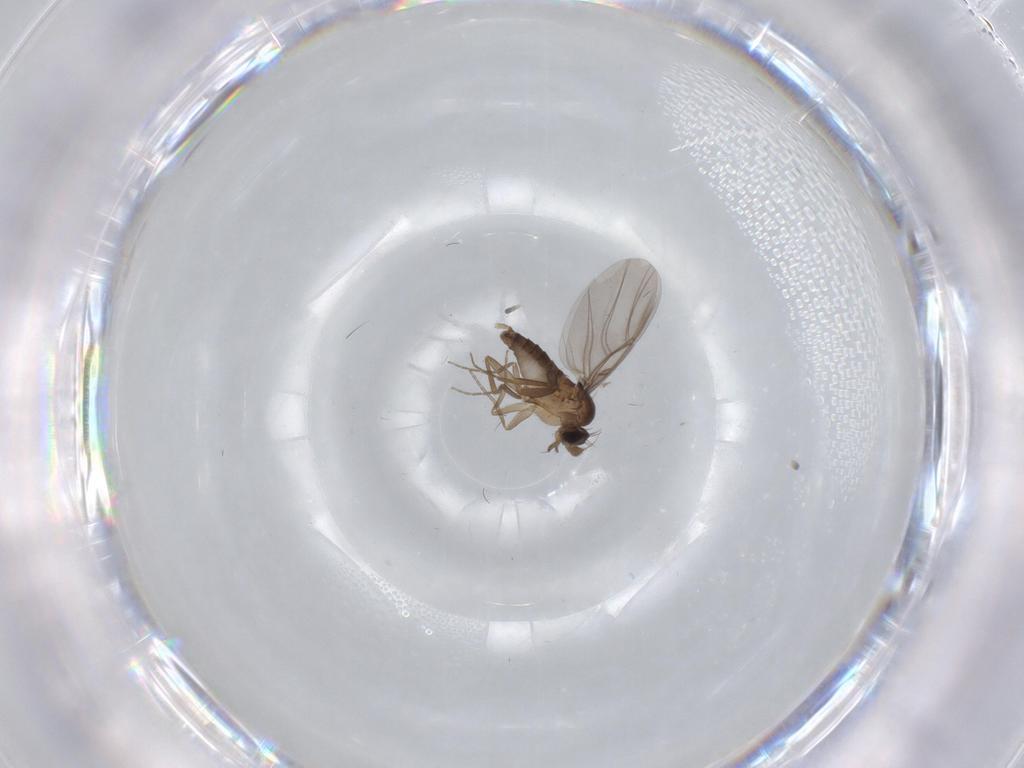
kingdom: Animalia
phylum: Arthropoda
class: Insecta
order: Diptera
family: Phoridae
